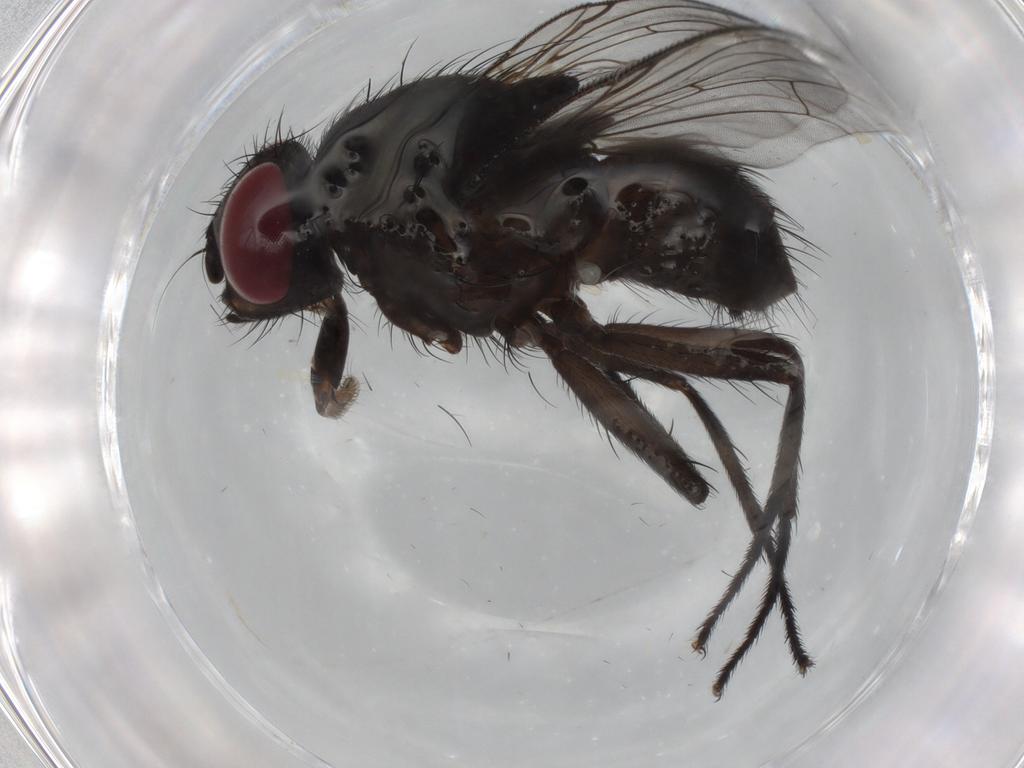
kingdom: Animalia
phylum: Arthropoda
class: Insecta
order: Diptera
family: Muscidae
